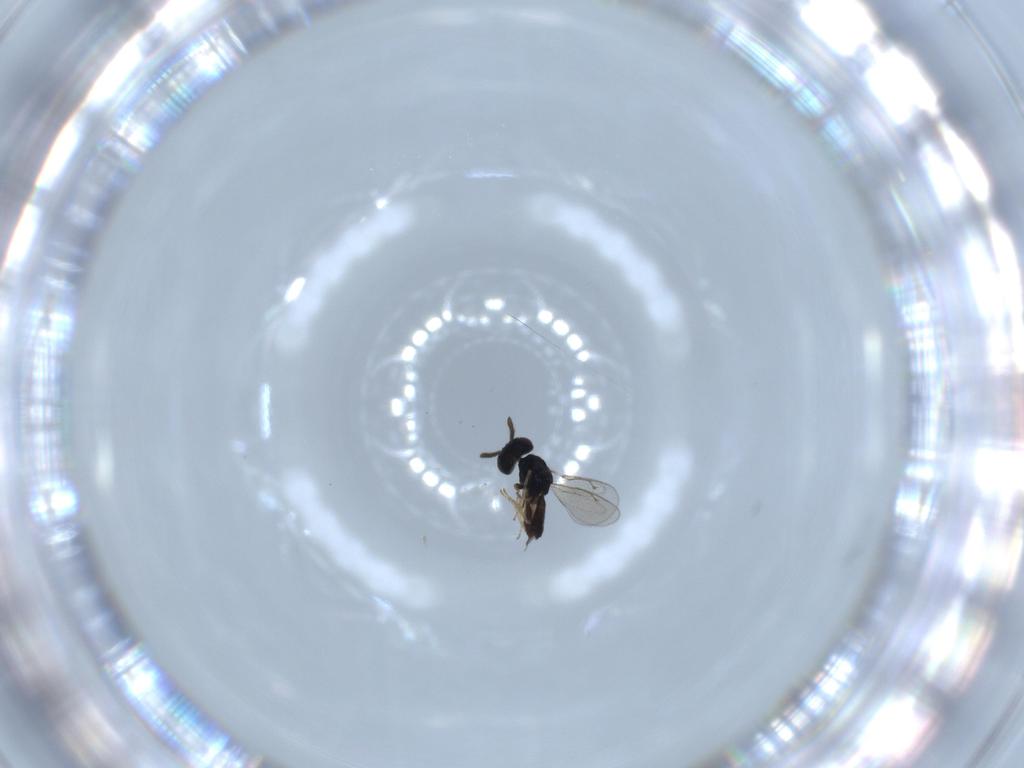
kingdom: Animalia
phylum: Arthropoda
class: Insecta
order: Hymenoptera
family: Pteromalidae
